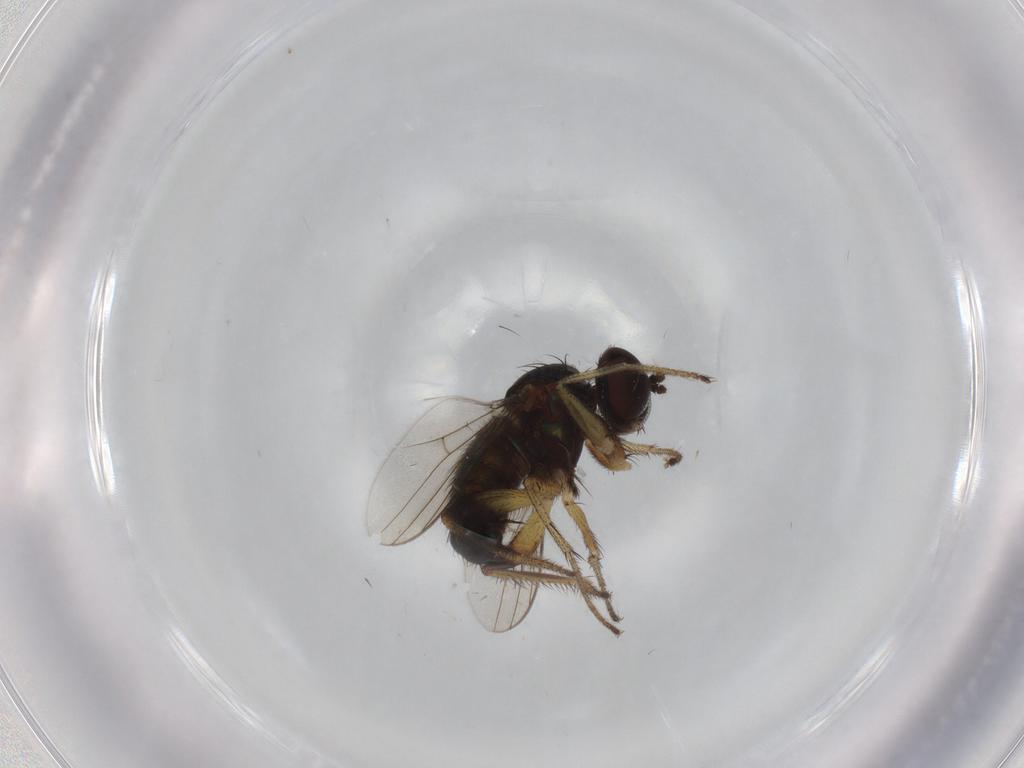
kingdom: Animalia
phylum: Arthropoda
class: Insecta
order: Diptera
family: Dolichopodidae
